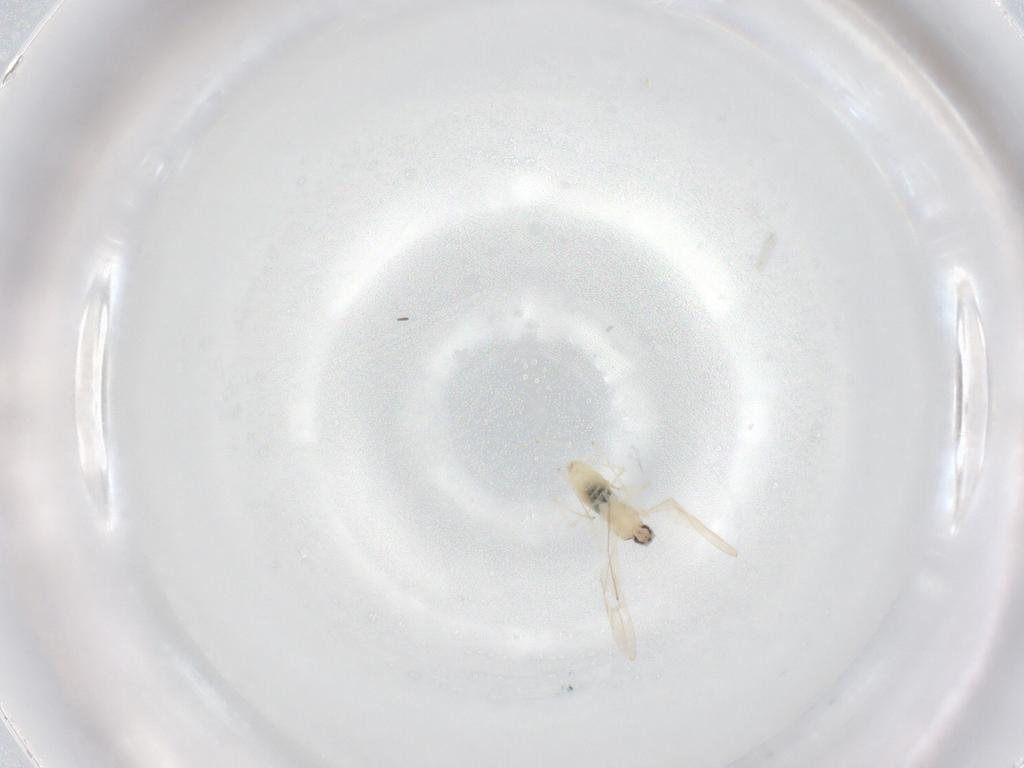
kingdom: Animalia
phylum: Arthropoda
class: Insecta
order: Diptera
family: Cecidomyiidae
